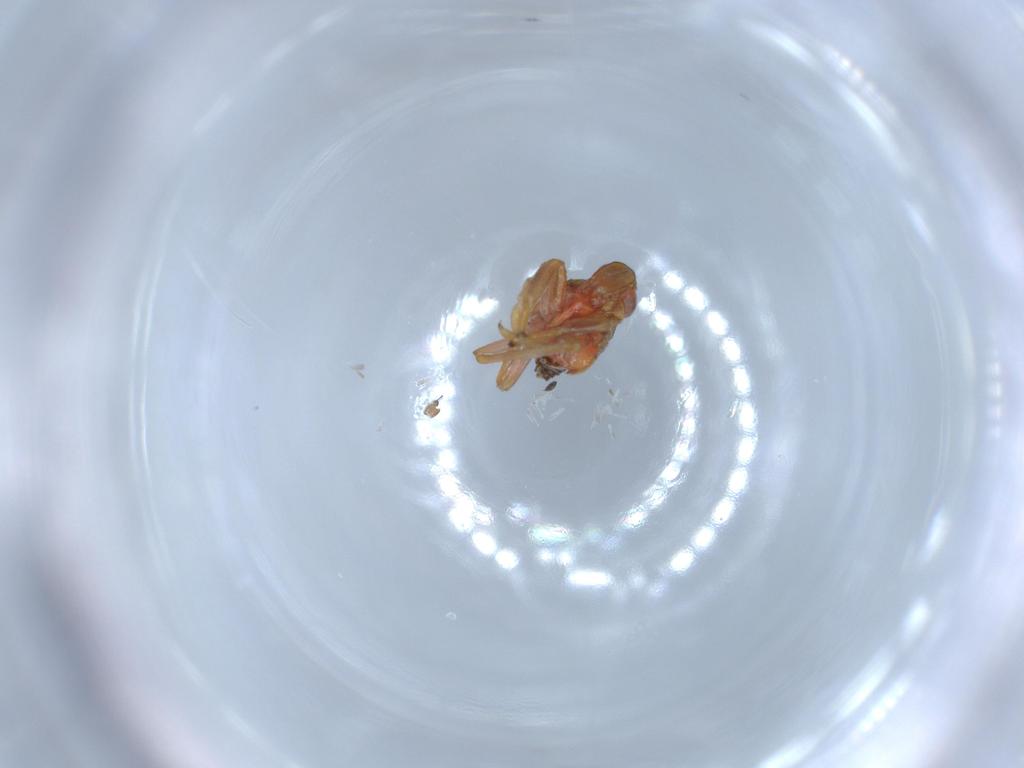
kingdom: Animalia
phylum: Arthropoda
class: Insecta
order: Hemiptera
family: Issidae
